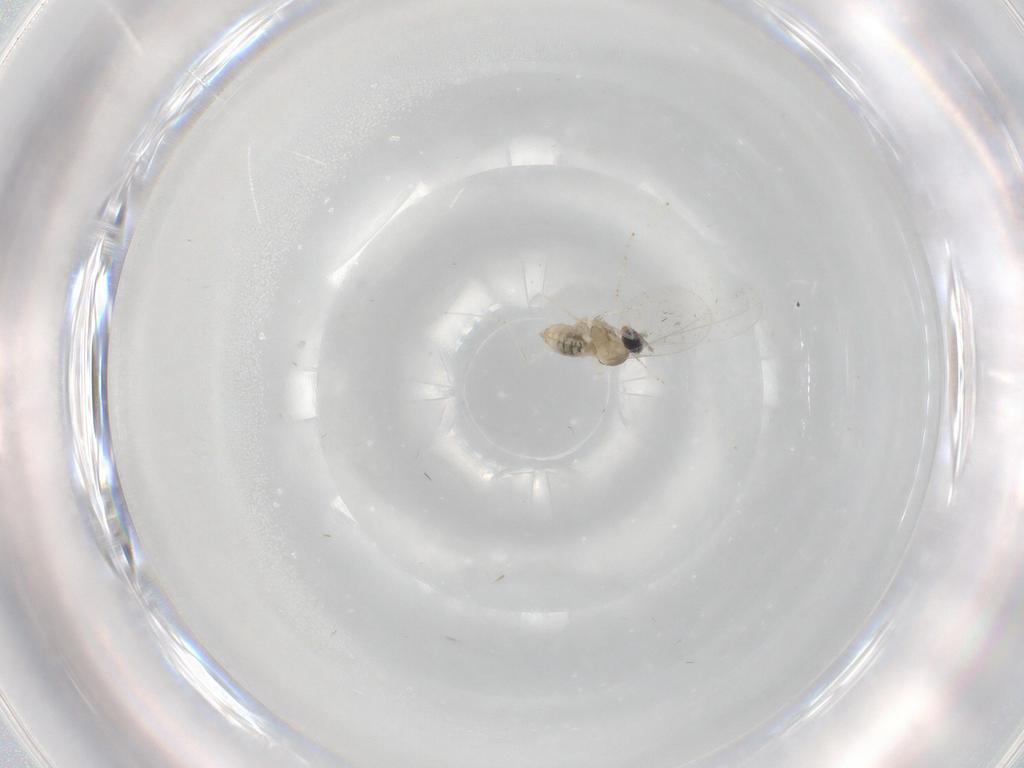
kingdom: Animalia
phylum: Arthropoda
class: Insecta
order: Diptera
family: Cecidomyiidae
